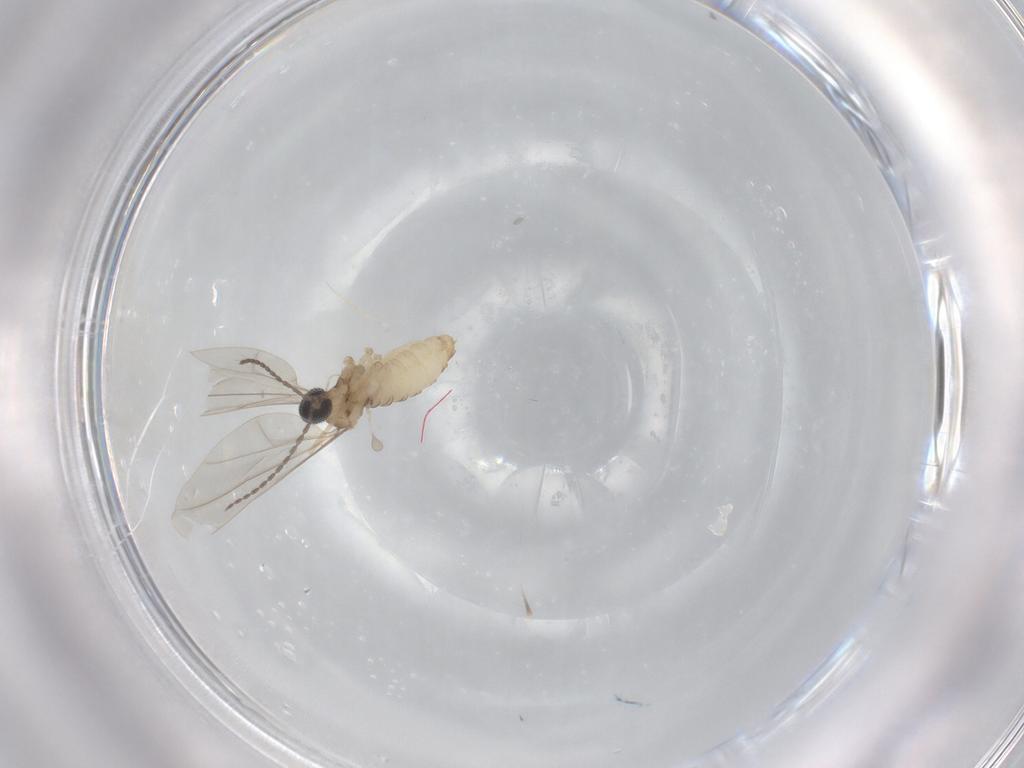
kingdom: Animalia
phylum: Arthropoda
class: Insecta
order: Diptera
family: Cecidomyiidae
